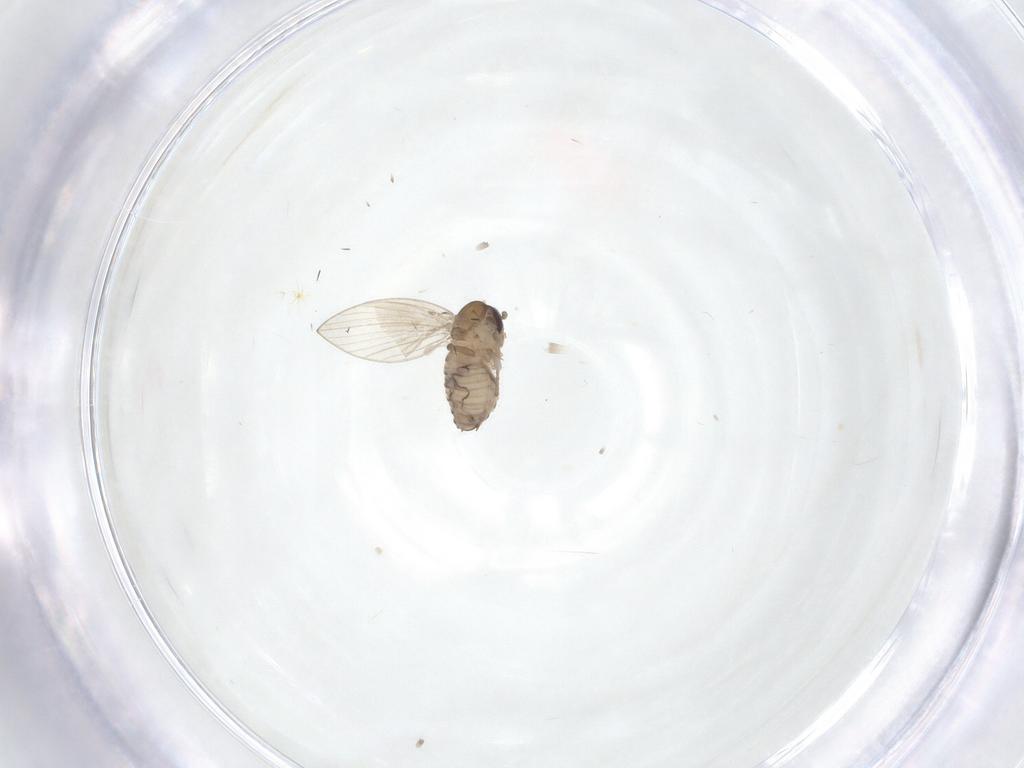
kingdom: Animalia
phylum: Arthropoda
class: Insecta
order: Diptera
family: Psychodidae
